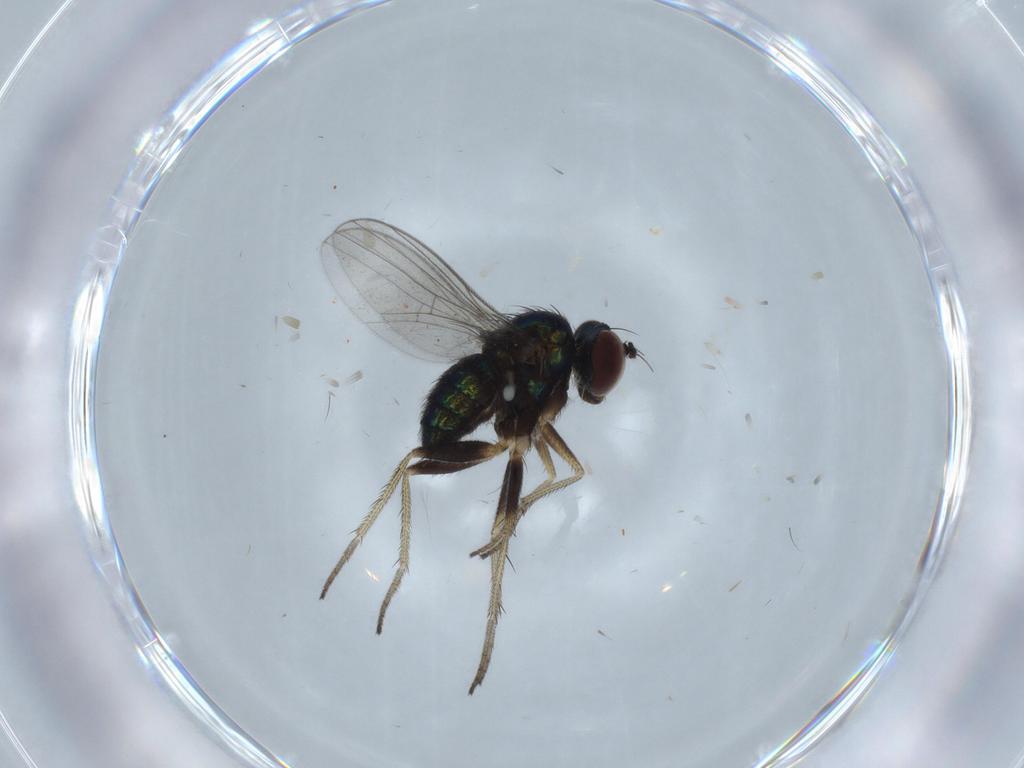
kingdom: Animalia
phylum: Arthropoda
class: Insecta
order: Diptera
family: Dolichopodidae
